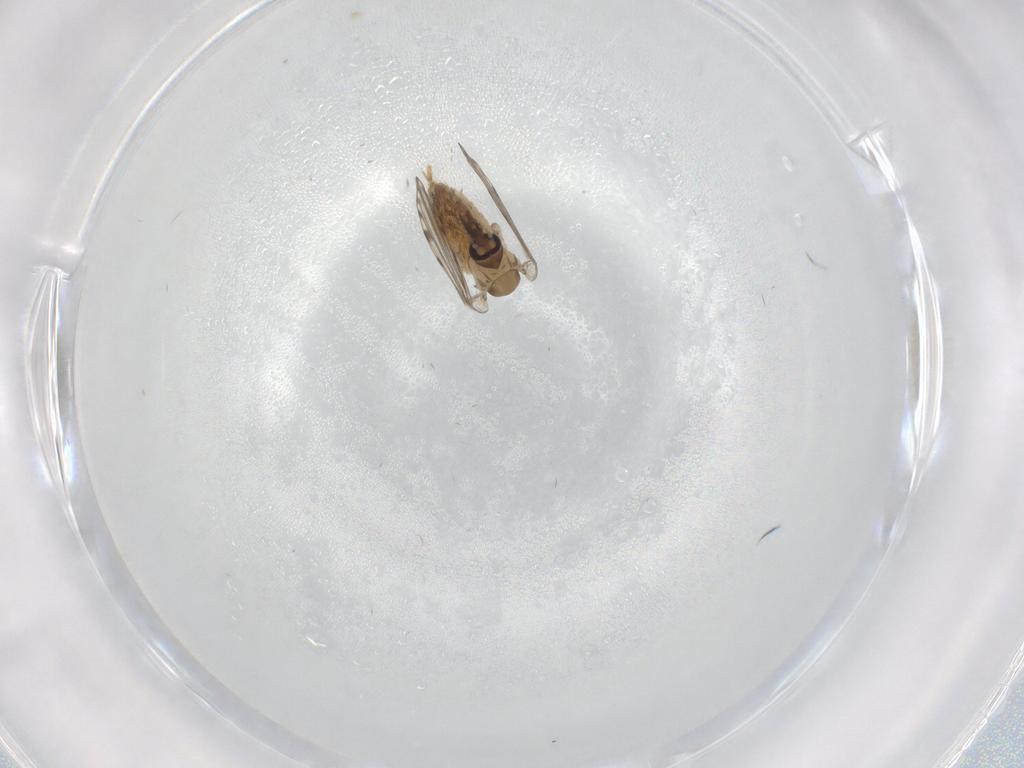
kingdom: Animalia
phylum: Arthropoda
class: Insecta
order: Diptera
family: Psychodidae
